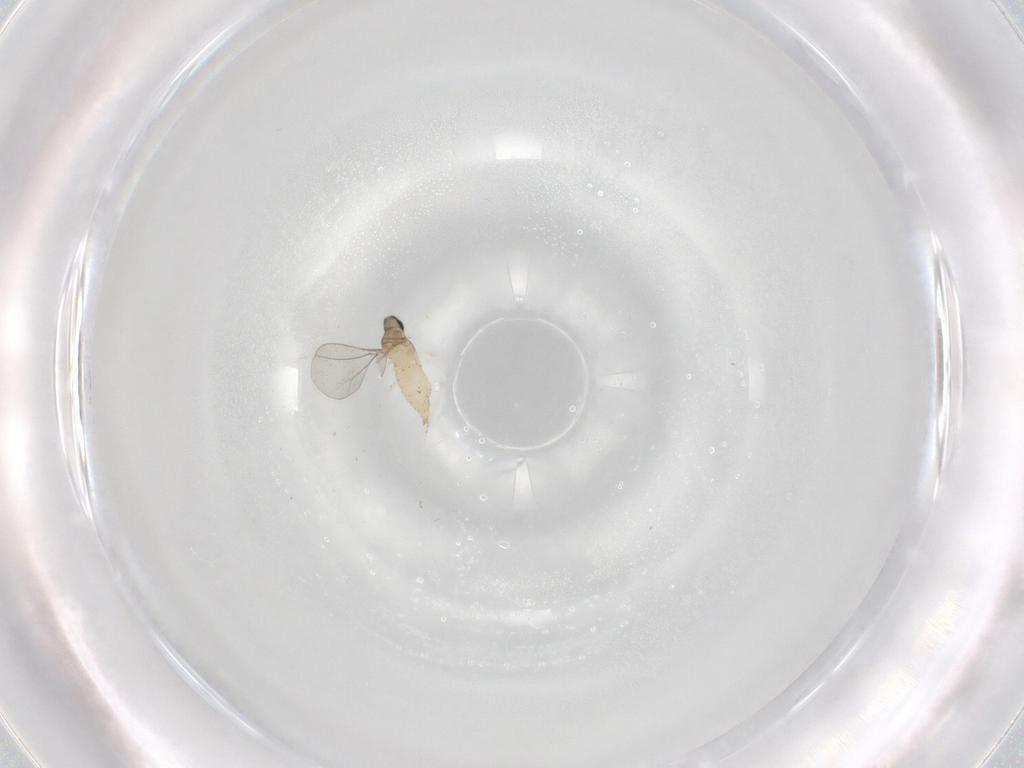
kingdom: Animalia
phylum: Arthropoda
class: Insecta
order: Diptera
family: Cecidomyiidae
